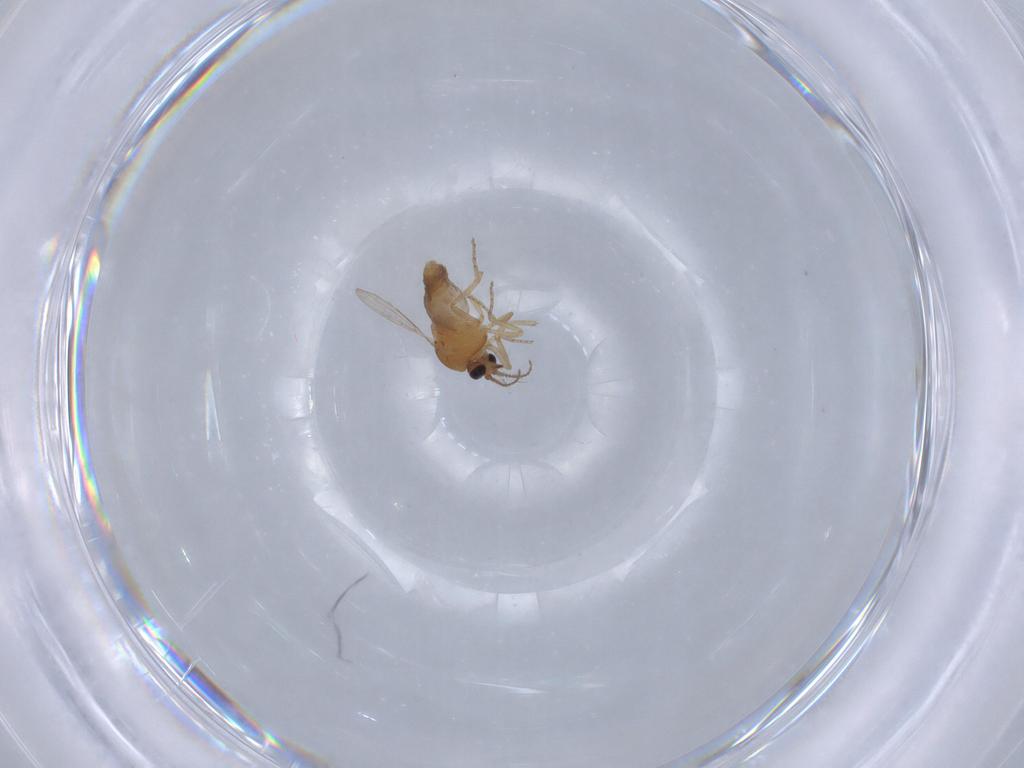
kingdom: Animalia
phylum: Arthropoda
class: Insecta
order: Diptera
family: Ceratopogonidae
